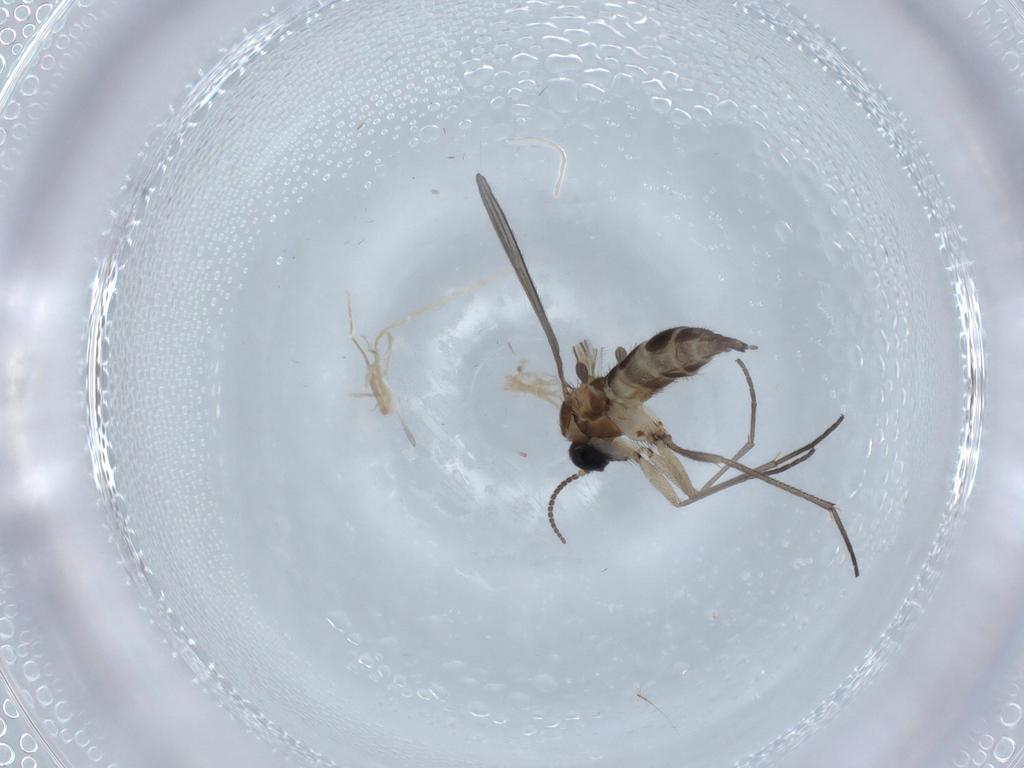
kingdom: Animalia
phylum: Arthropoda
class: Insecta
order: Diptera
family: Sciaridae
